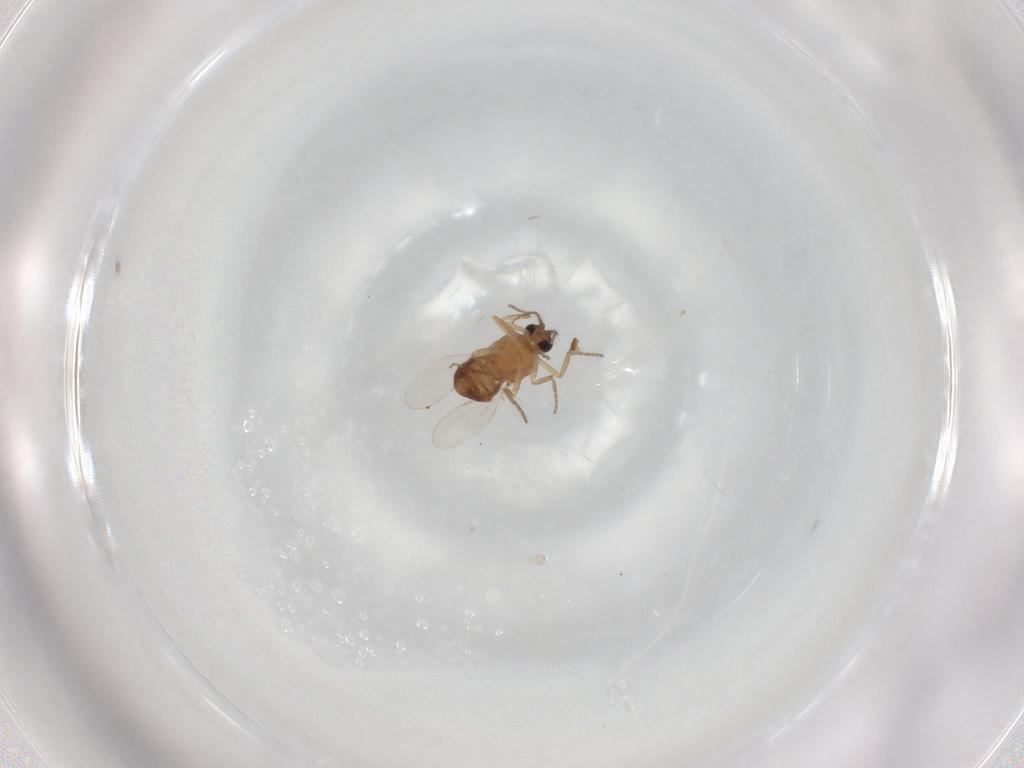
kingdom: Animalia
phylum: Arthropoda
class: Insecta
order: Diptera
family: Ceratopogonidae
